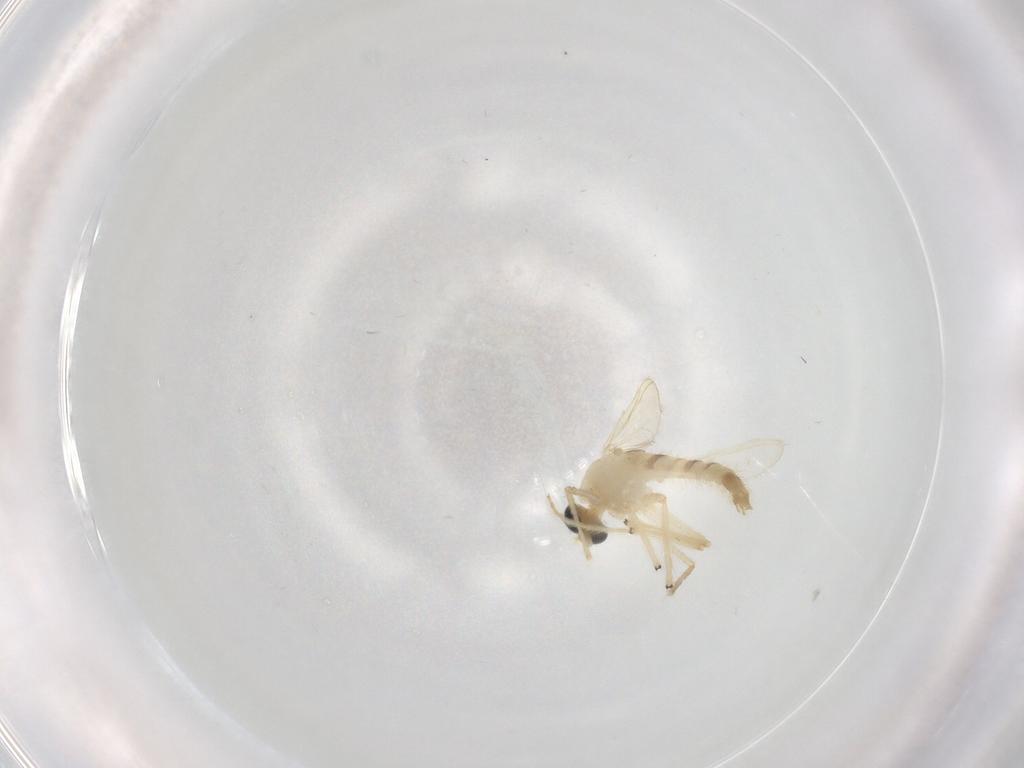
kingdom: Animalia
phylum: Arthropoda
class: Insecta
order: Diptera
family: Chironomidae
